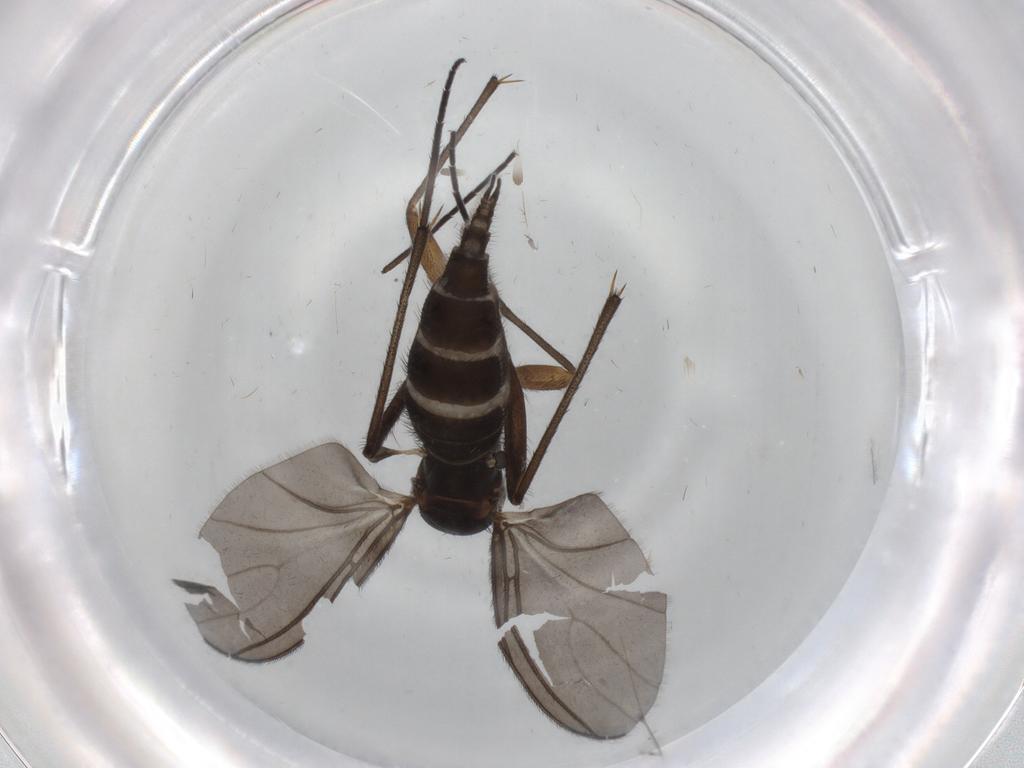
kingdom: Animalia
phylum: Arthropoda
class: Insecta
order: Diptera
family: Sciaridae
